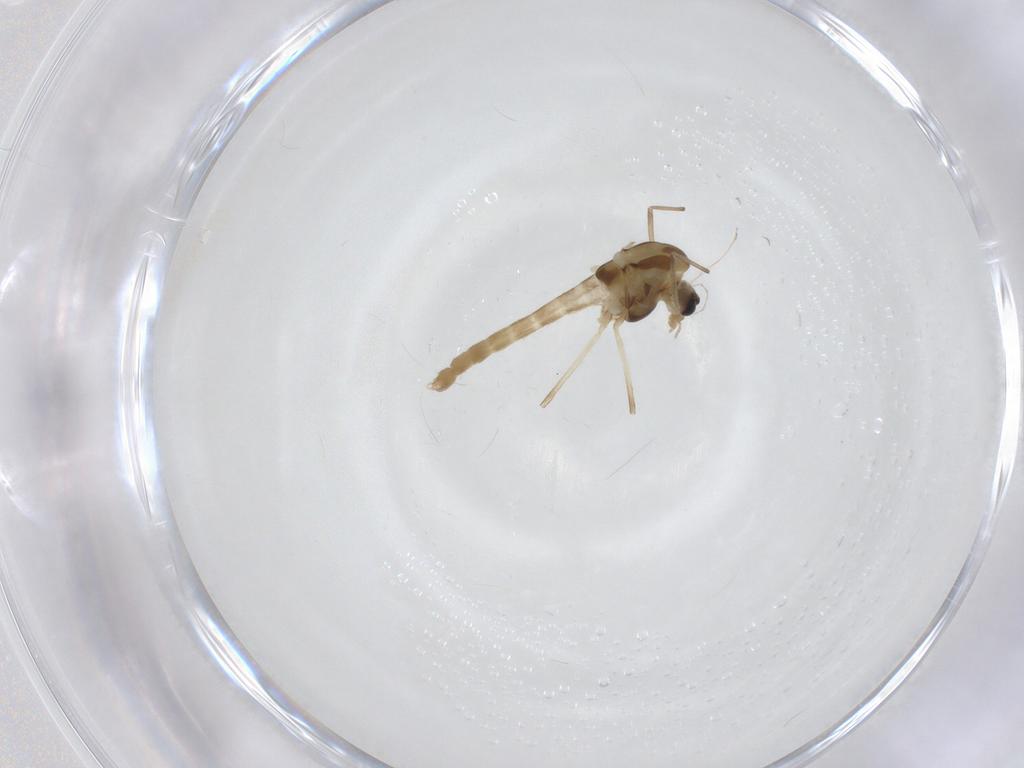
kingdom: Animalia
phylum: Arthropoda
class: Insecta
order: Diptera
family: Chironomidae
